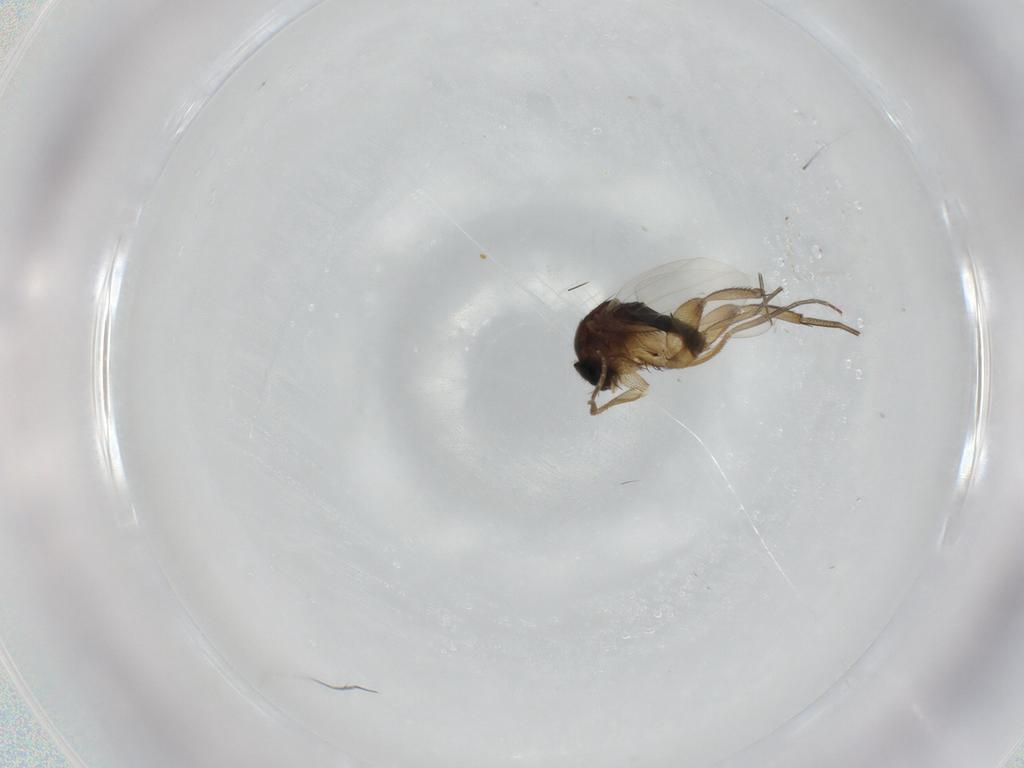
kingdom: Animalia
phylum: Arthropoda
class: Insecta
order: Diptera
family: Phoridae
